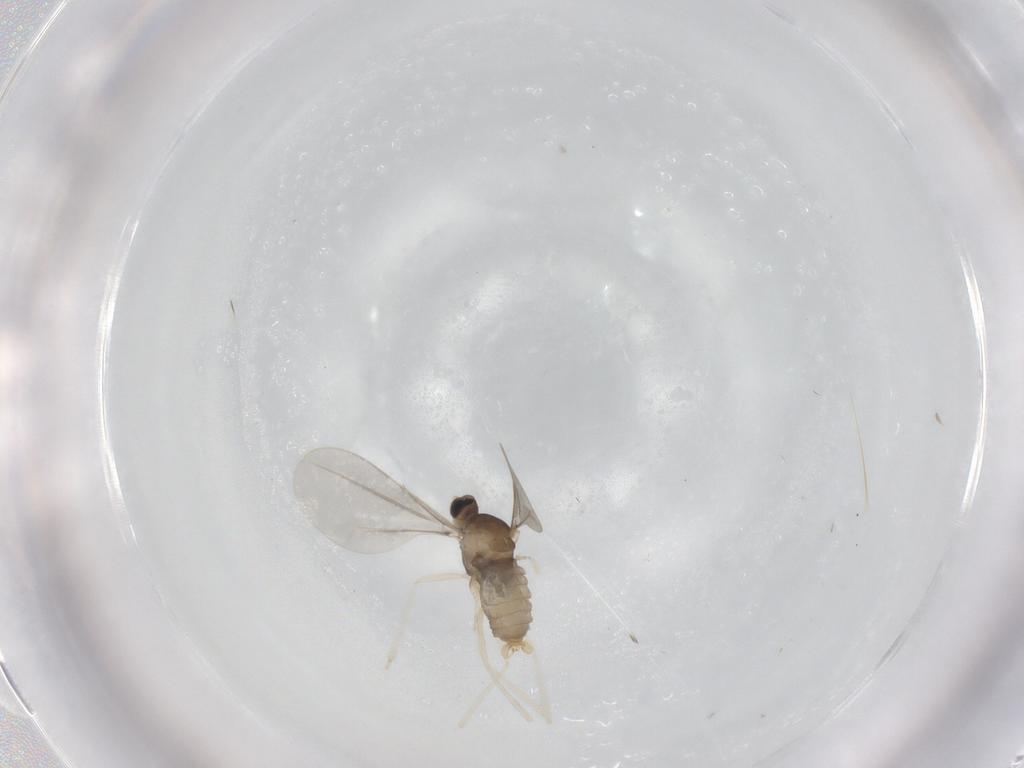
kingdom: Animalia
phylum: Arthropoda
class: Insecta
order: Diptera
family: Cecidomyiidae
